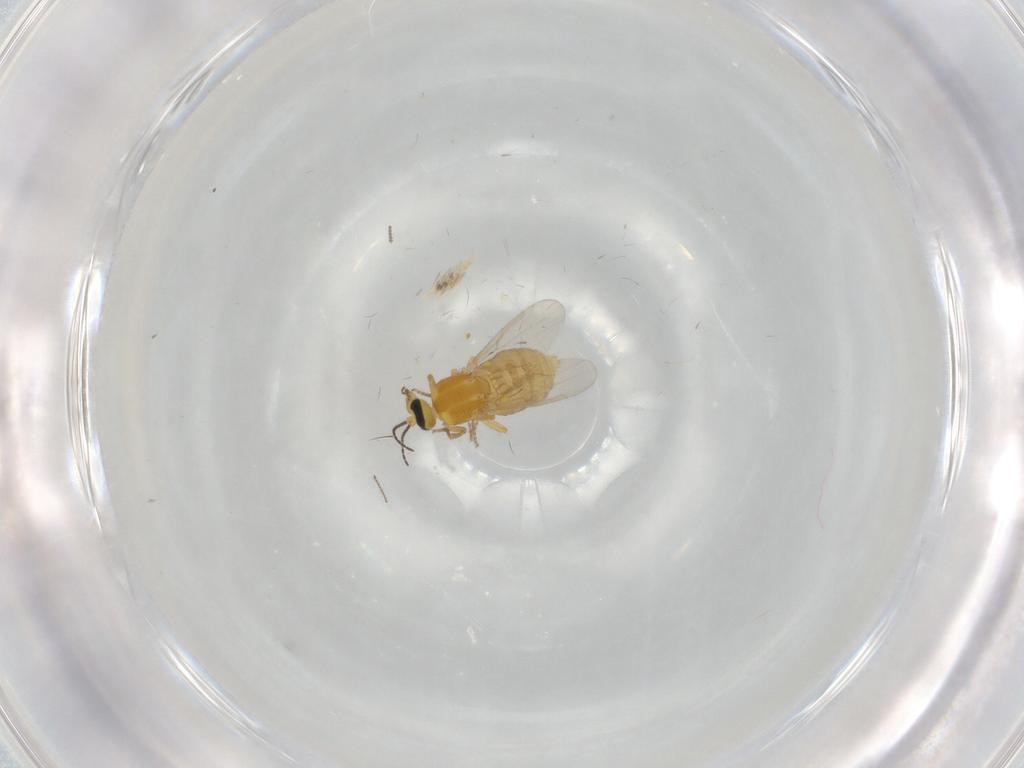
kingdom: Animalia
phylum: Arthropoda
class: Insecta
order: Diptera
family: Ceratopogonidae
